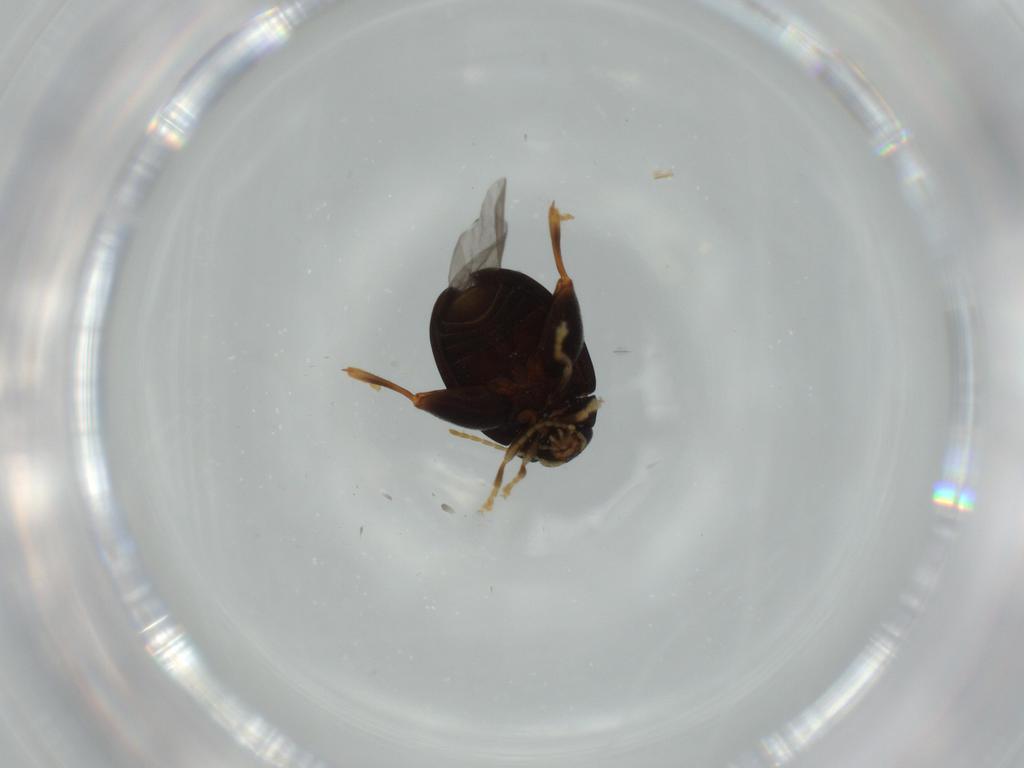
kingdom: Animalia
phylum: Arthropoda
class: Insecta
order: Coleoptera
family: Chrysomelidae
